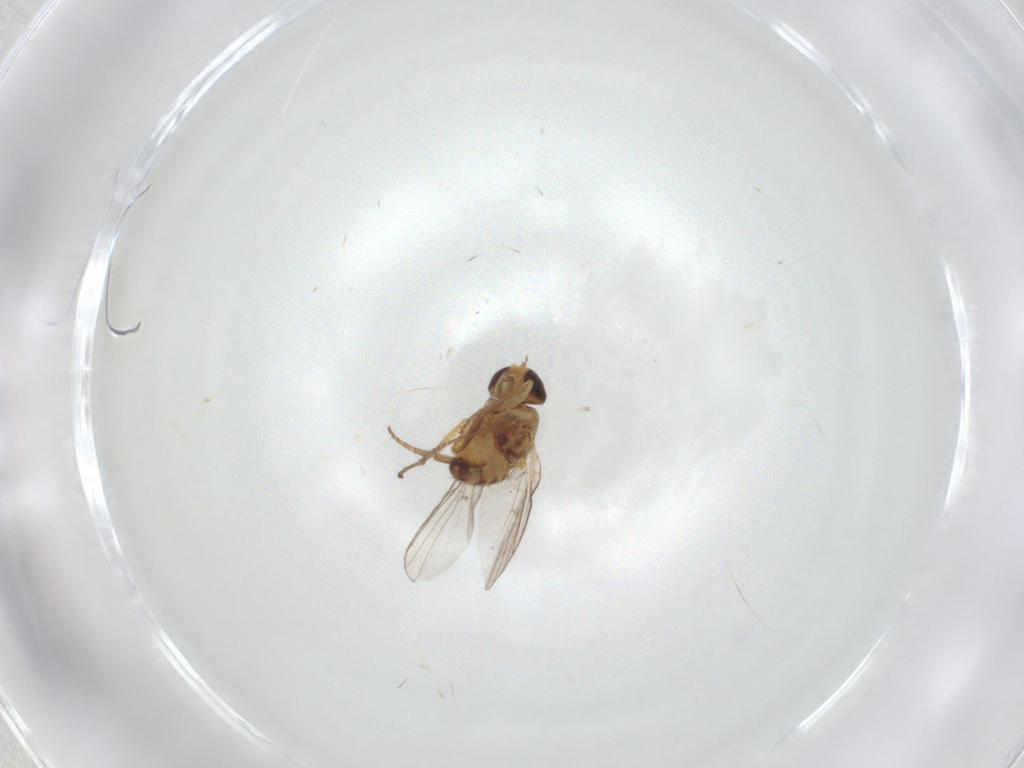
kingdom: Animalia
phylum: Arthropoda
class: Insecta
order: Diptera
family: Agromyzidae
